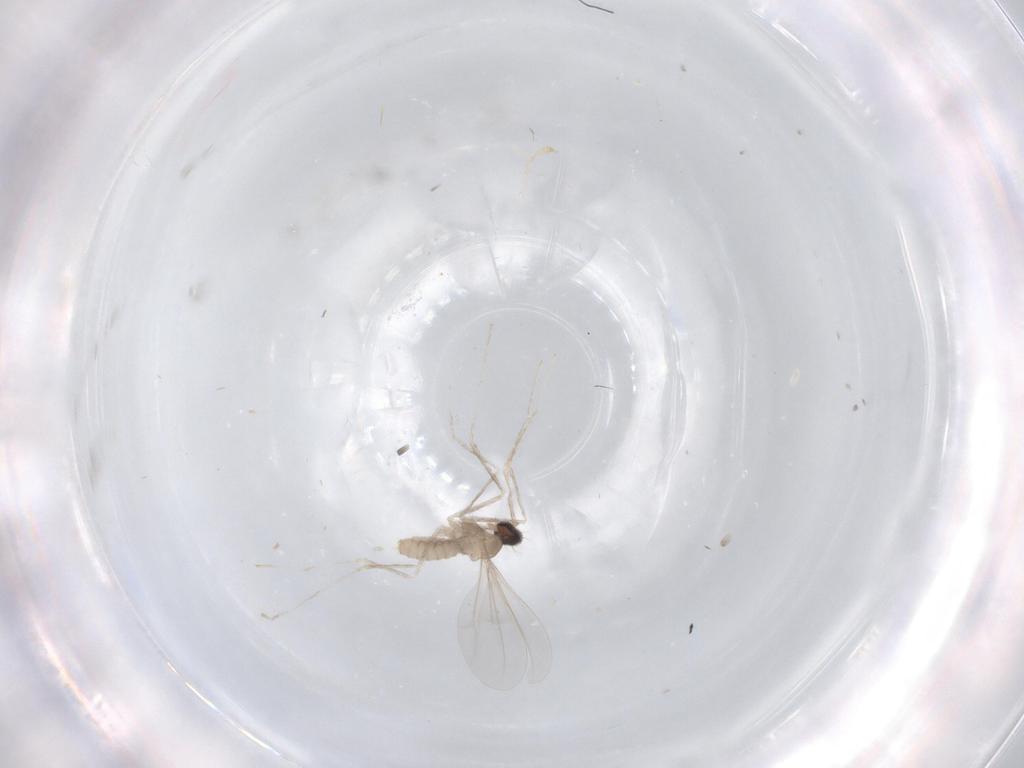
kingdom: Animalia
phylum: Arthropoda
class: Insecta
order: Diptera
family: Cecidomyiidae
